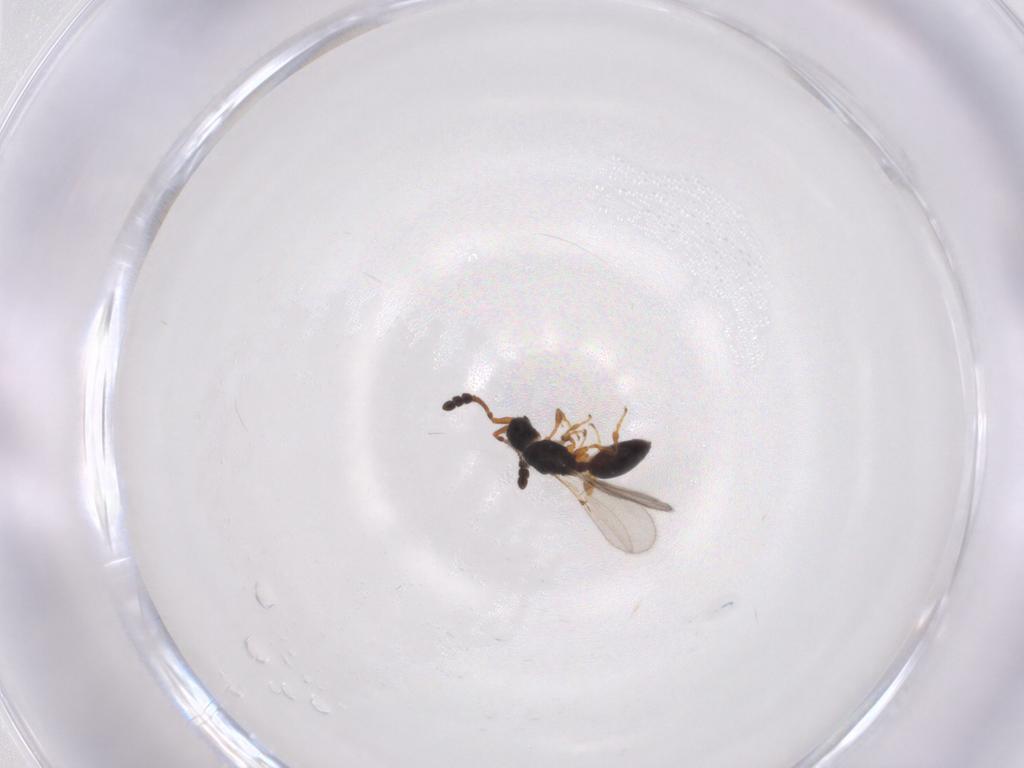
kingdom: Animalia
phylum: Arthropoda
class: Insecta
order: Hymenoptera
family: Diapriidae
